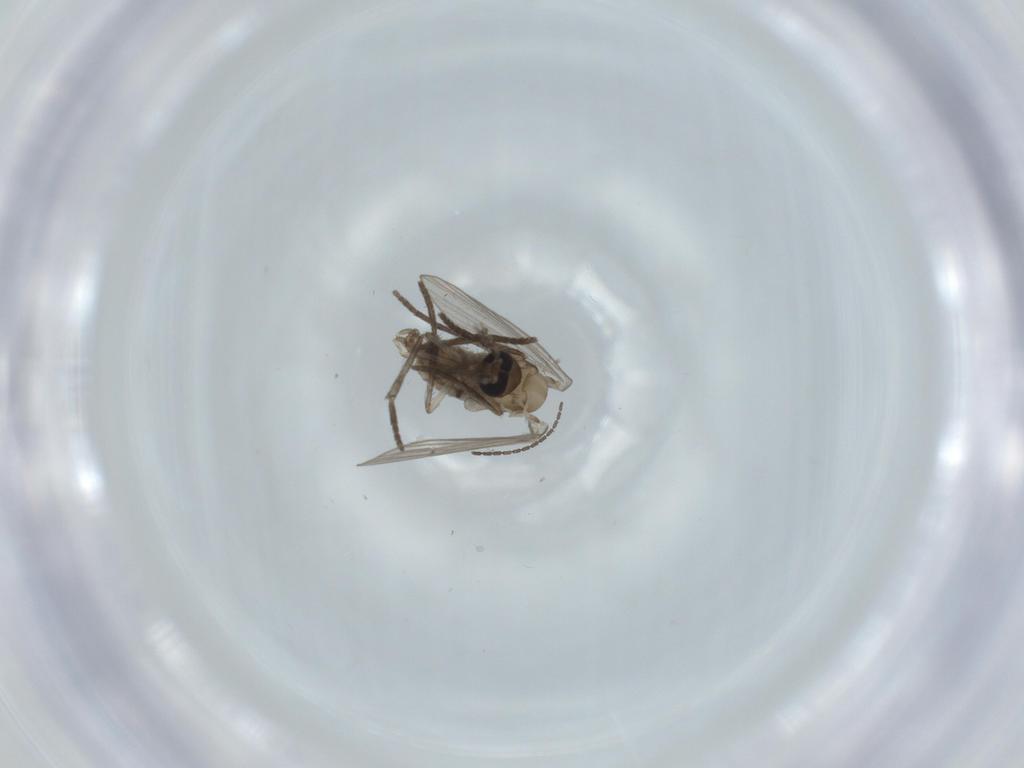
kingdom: Animalia
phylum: Arthropoda
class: Insecta
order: Diptera
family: Psychodidae
